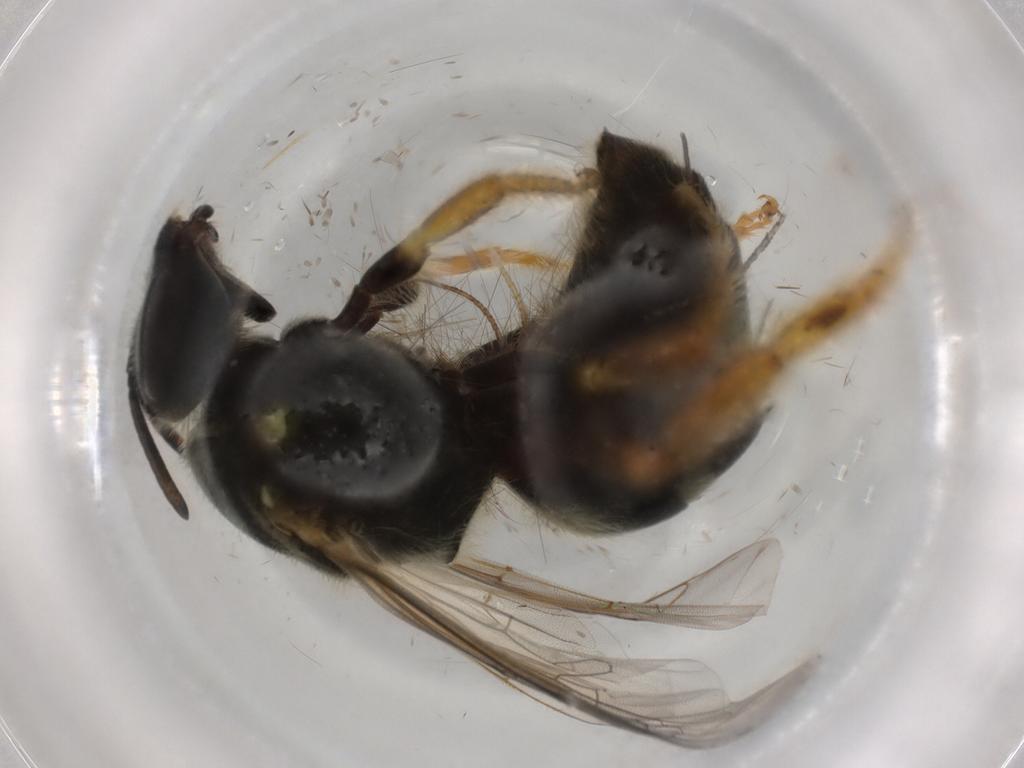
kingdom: Animalia
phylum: Arthropoda
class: Insecta
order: Hymenoptera
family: Halictidae
